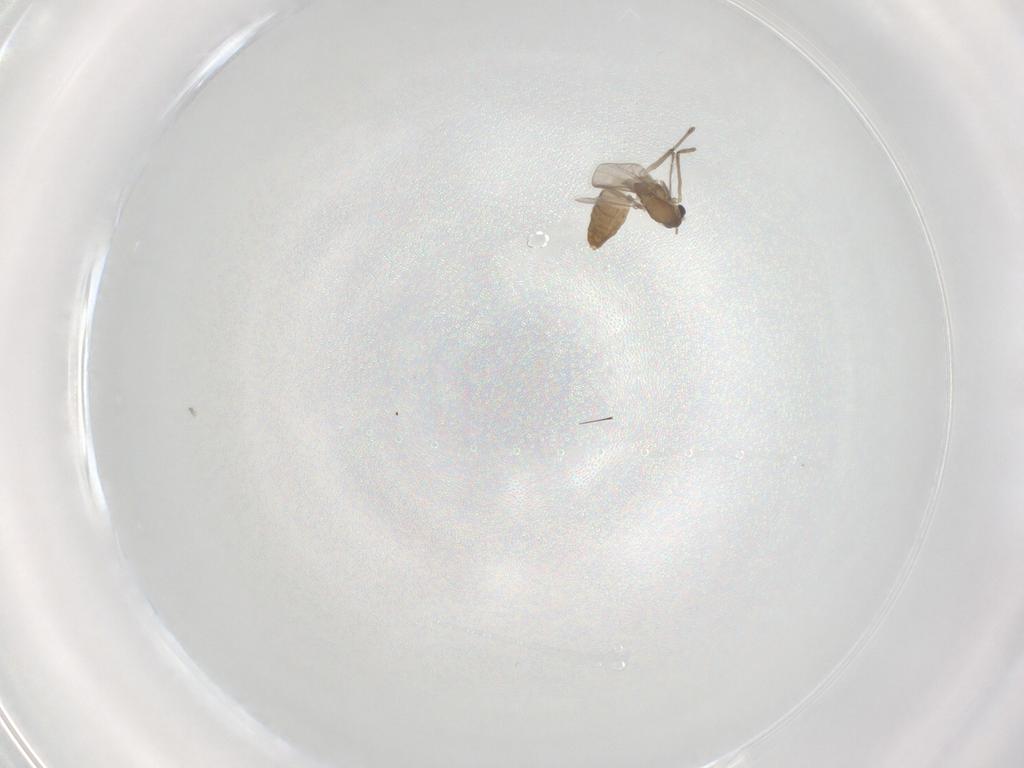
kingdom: Animalia
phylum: Arthropoda
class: Insecta
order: Diptera
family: Chironomidae
